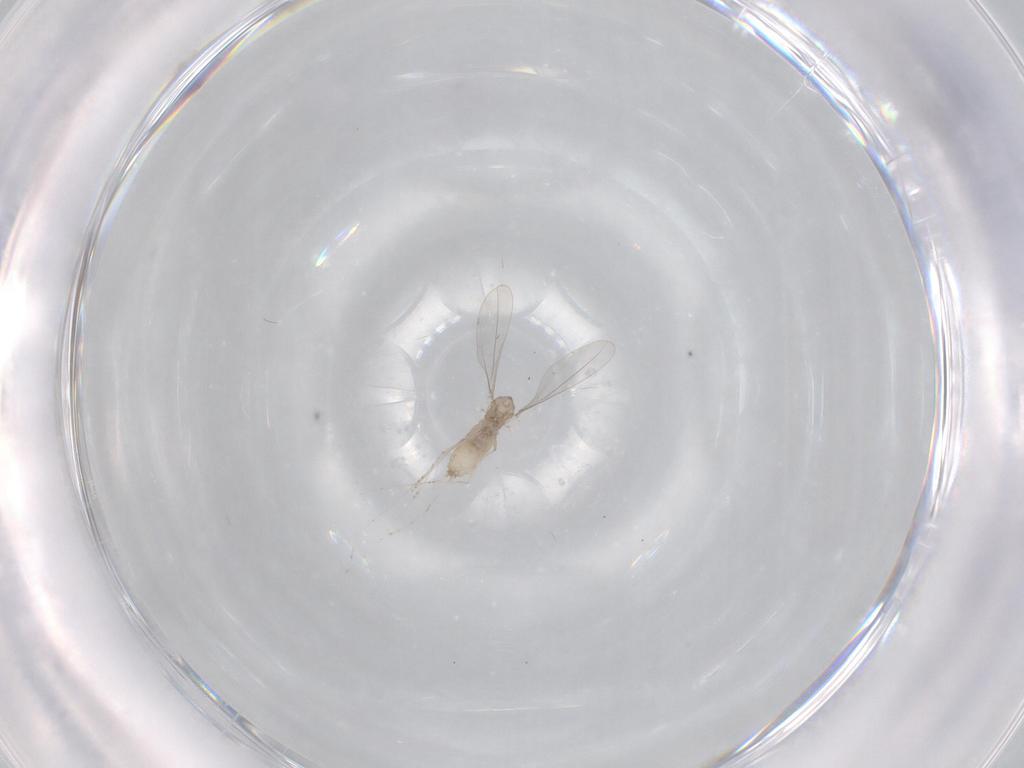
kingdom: Animalia
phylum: Arthropoda
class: Insecta
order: Diptera
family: Cecidomyiidae
